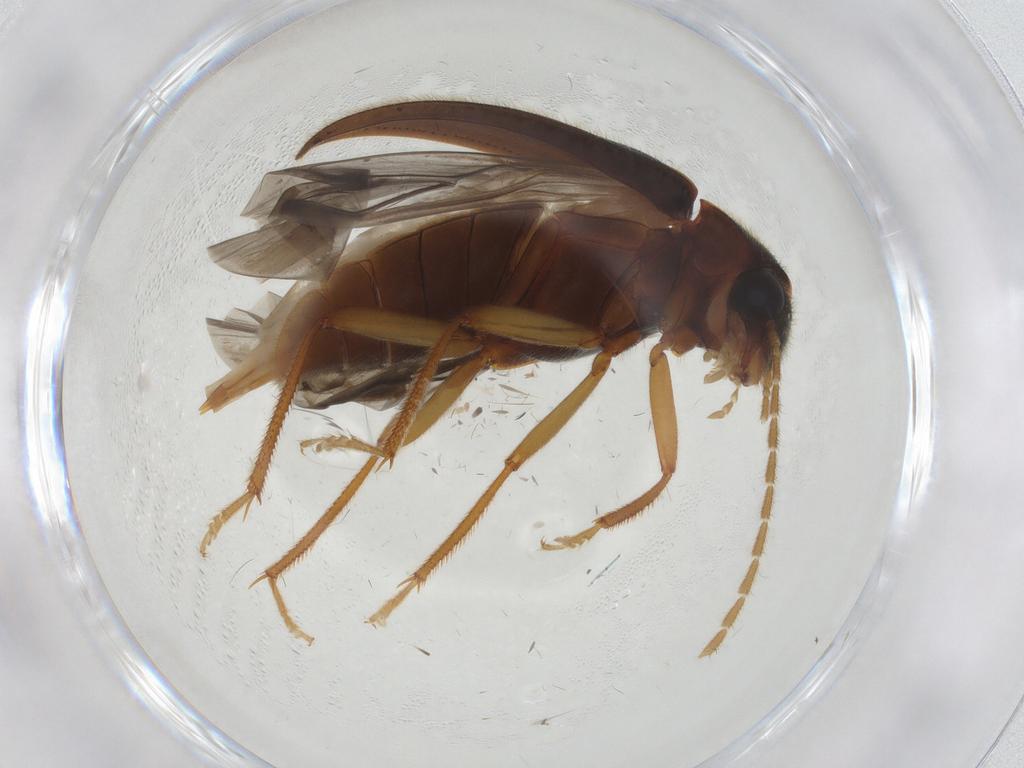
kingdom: Animalia
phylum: Arthropoda
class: Insecta
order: Coleoptera
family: Ptilodactylidae
